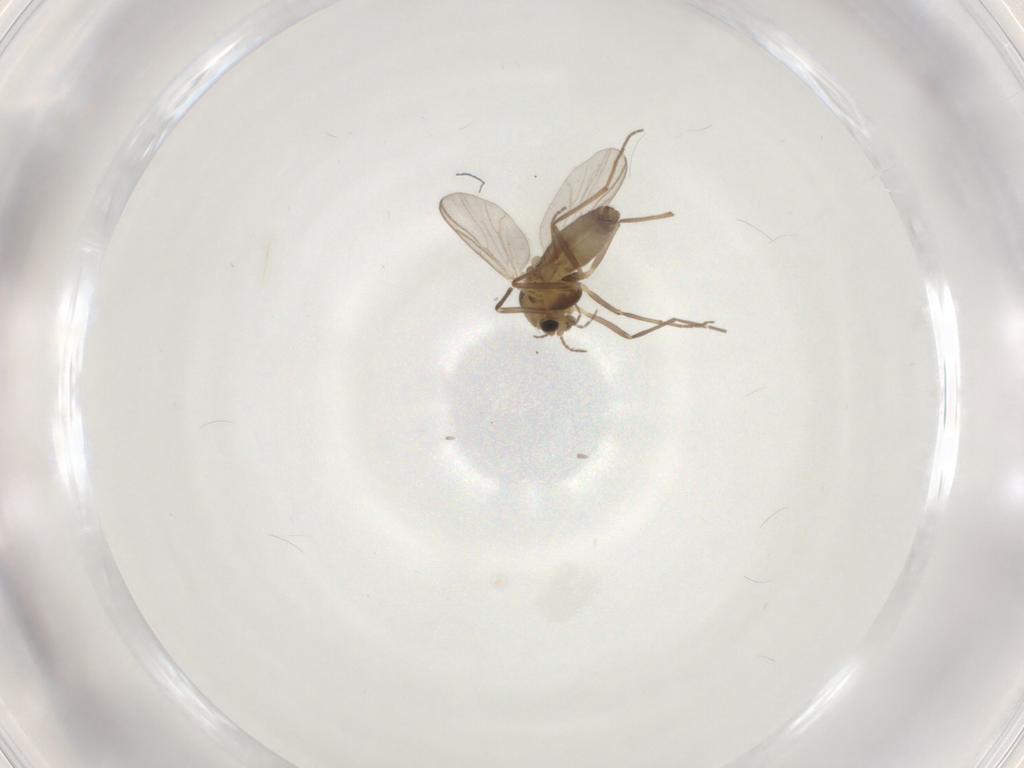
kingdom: Animalia
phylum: Arthropoda
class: Insecta
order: Diptera
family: Chironomidae
